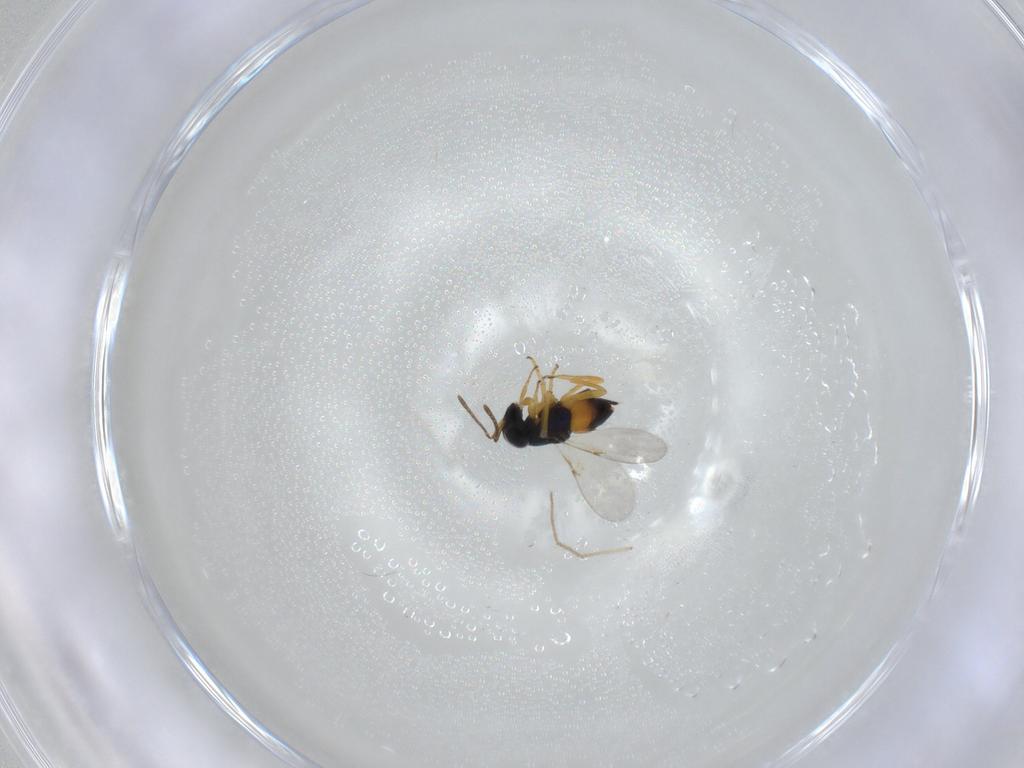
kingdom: Animalia
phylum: Arthropoda
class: Insecta
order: Hymenoptera
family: Encyrtidae
